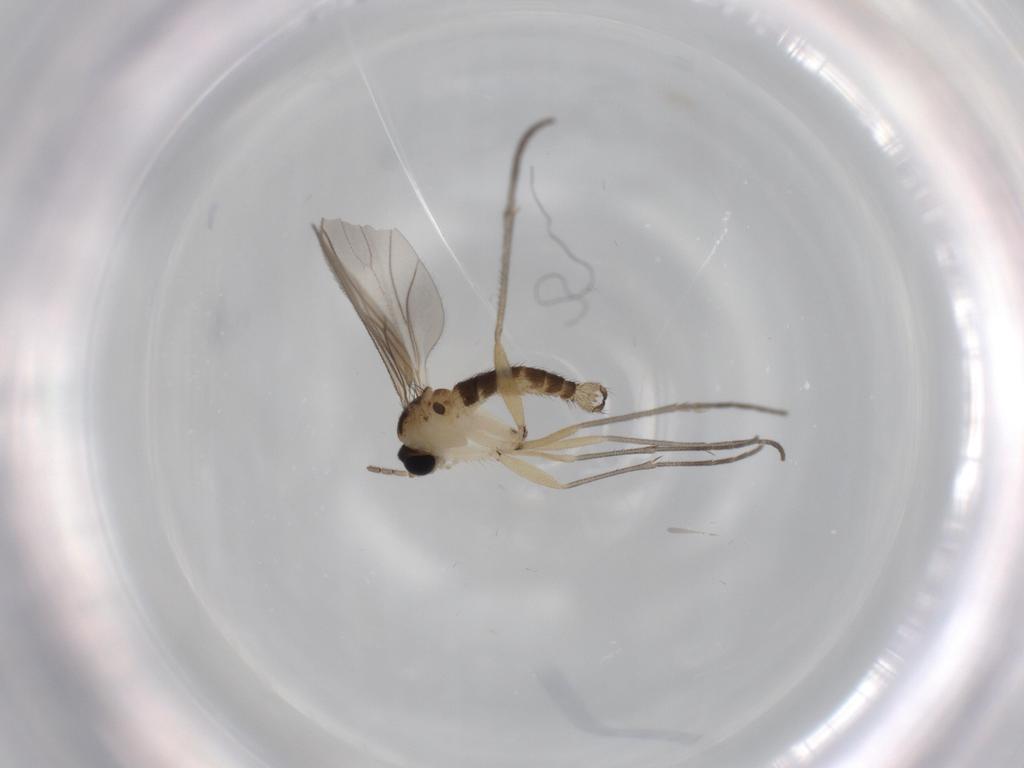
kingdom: Animalia
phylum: Arthropoda
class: Insecta
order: Diptera
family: Sciaridae
